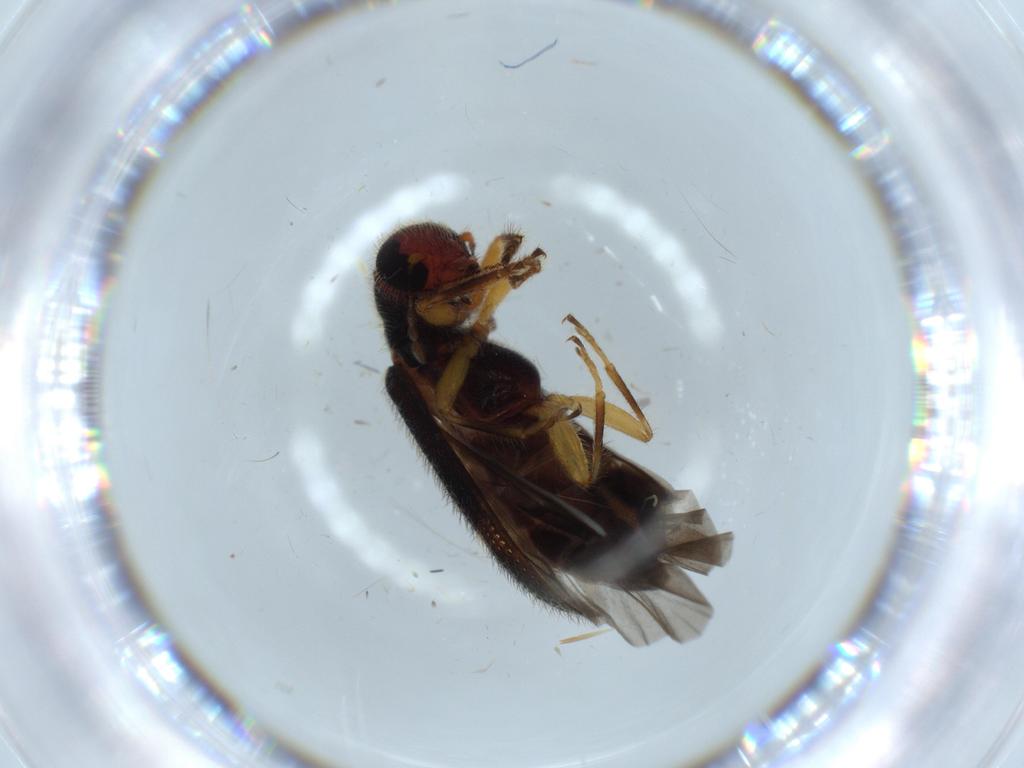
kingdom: Animalia
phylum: Arthropoda
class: Insecta
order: Coleoptera
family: Cleridae
